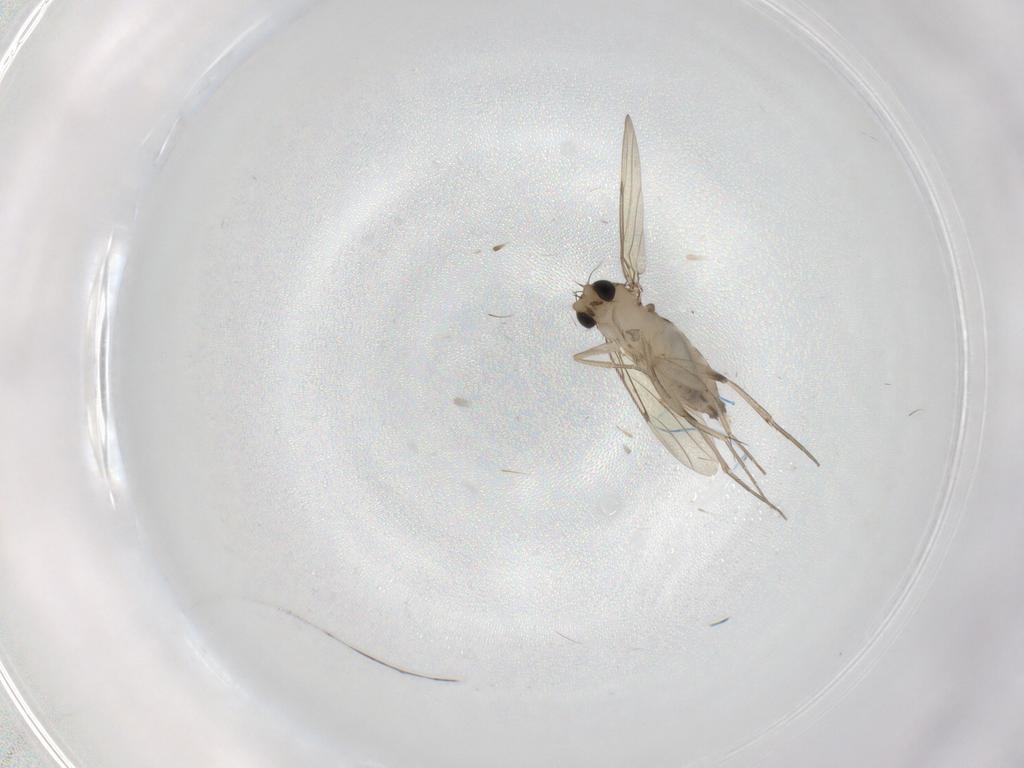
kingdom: Animalia
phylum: Arthropoda
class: Insecta
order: Diptera
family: Phoridae
